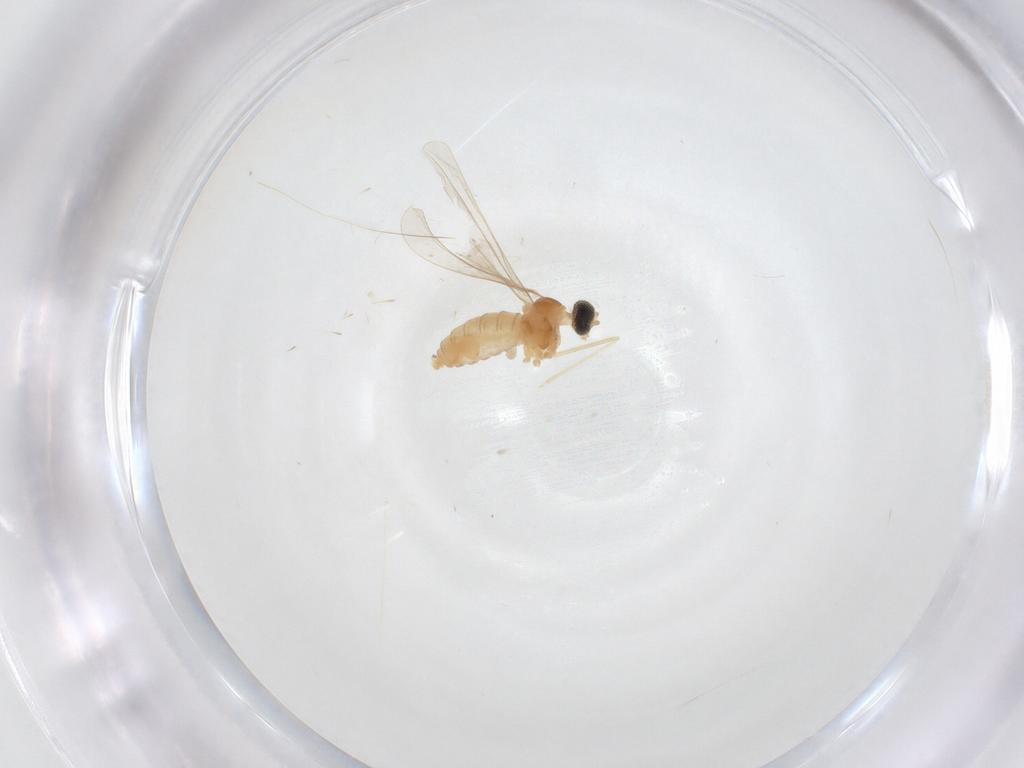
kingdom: Animalia
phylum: Arthropoda
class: Insecta
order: Diptera
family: Cecidomyiidae
